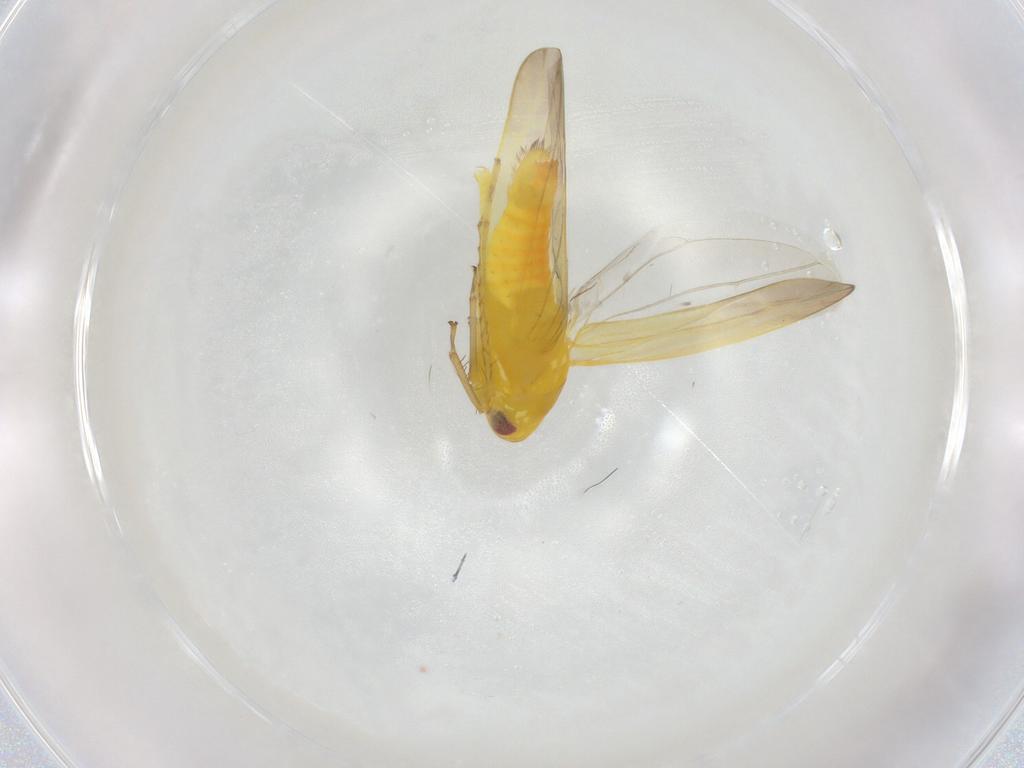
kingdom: Animalia
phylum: Arthropoda
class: Insecta
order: Hemiptera
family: Cicadellidae
